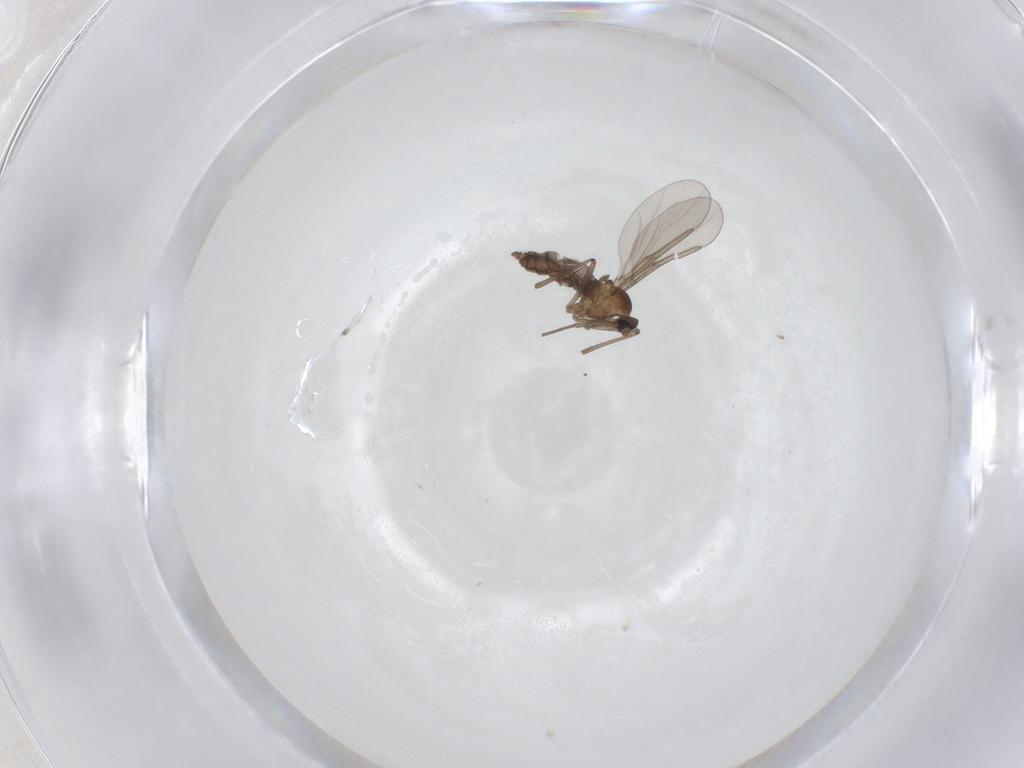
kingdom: Animalia
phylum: Arthropoda
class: Insecta
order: Diptera
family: Cecidomyiidae
